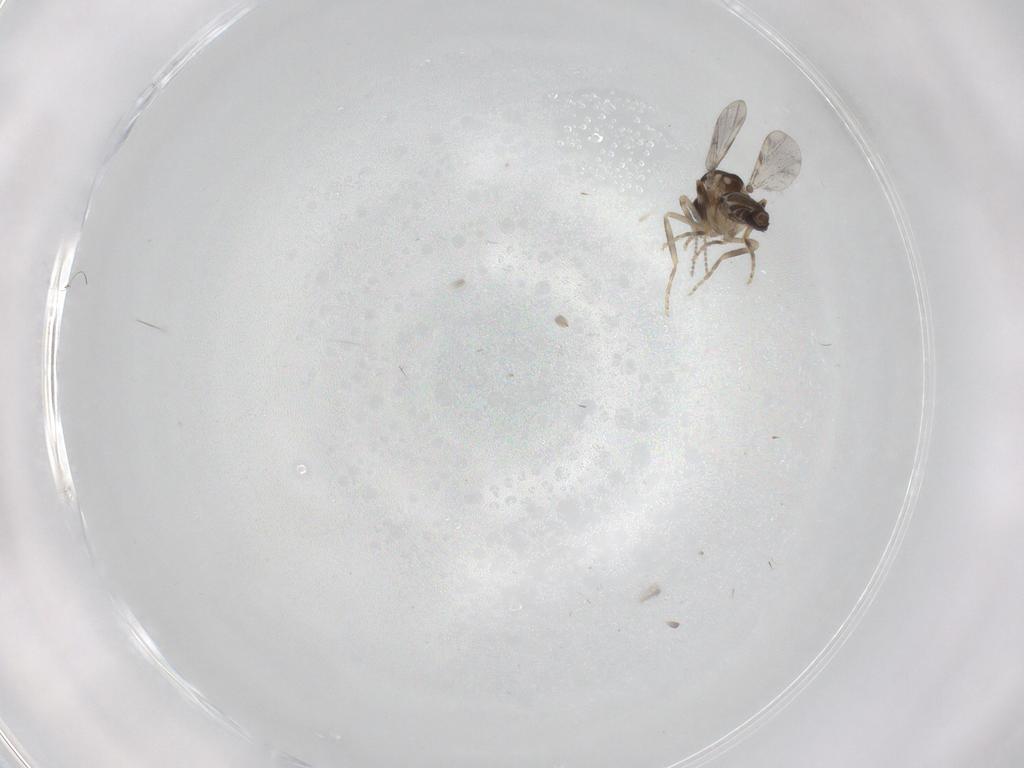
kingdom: Animalia
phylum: Arthropoda
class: Insecta
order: Diptera
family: Ceratopogonidae
